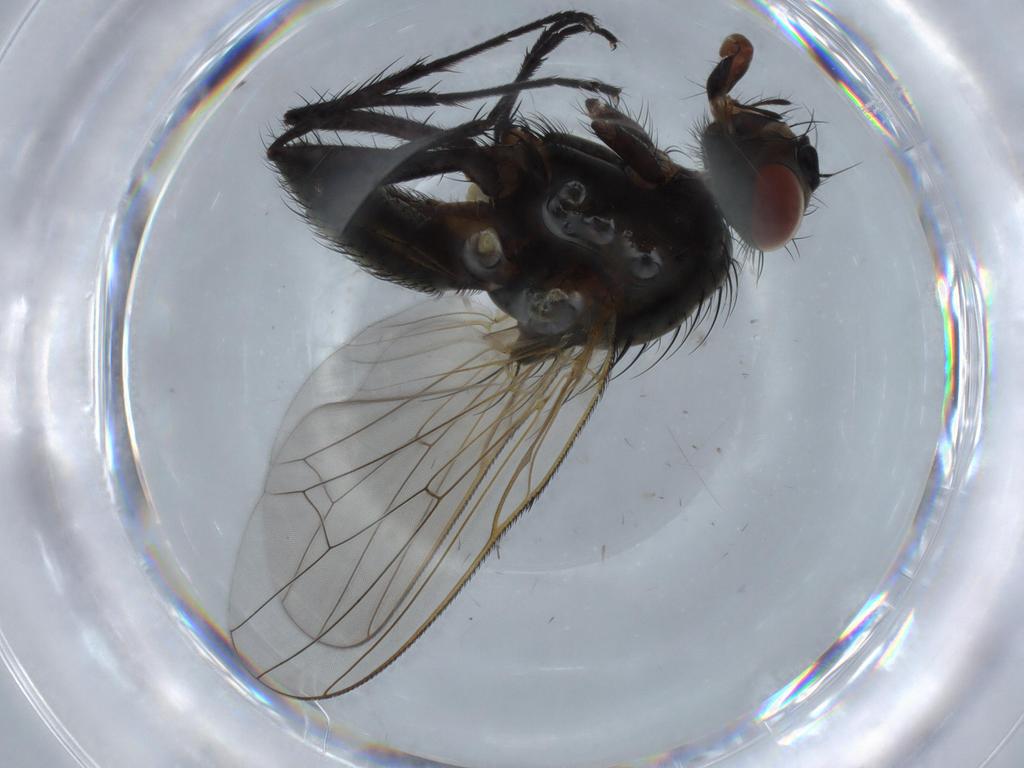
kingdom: Animalia
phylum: Arthropoda
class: Insecta
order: Diptera
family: Anthomyiidae
